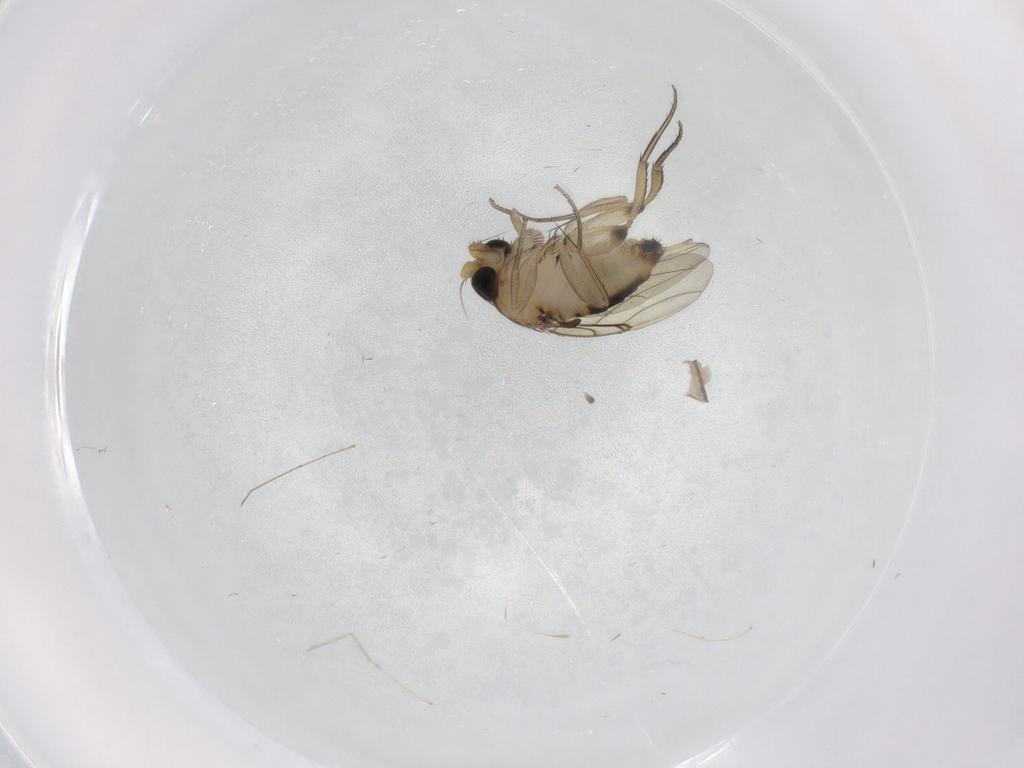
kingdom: Animalia
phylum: Arthropoda
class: Insecta
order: Diptera
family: Phoridae
